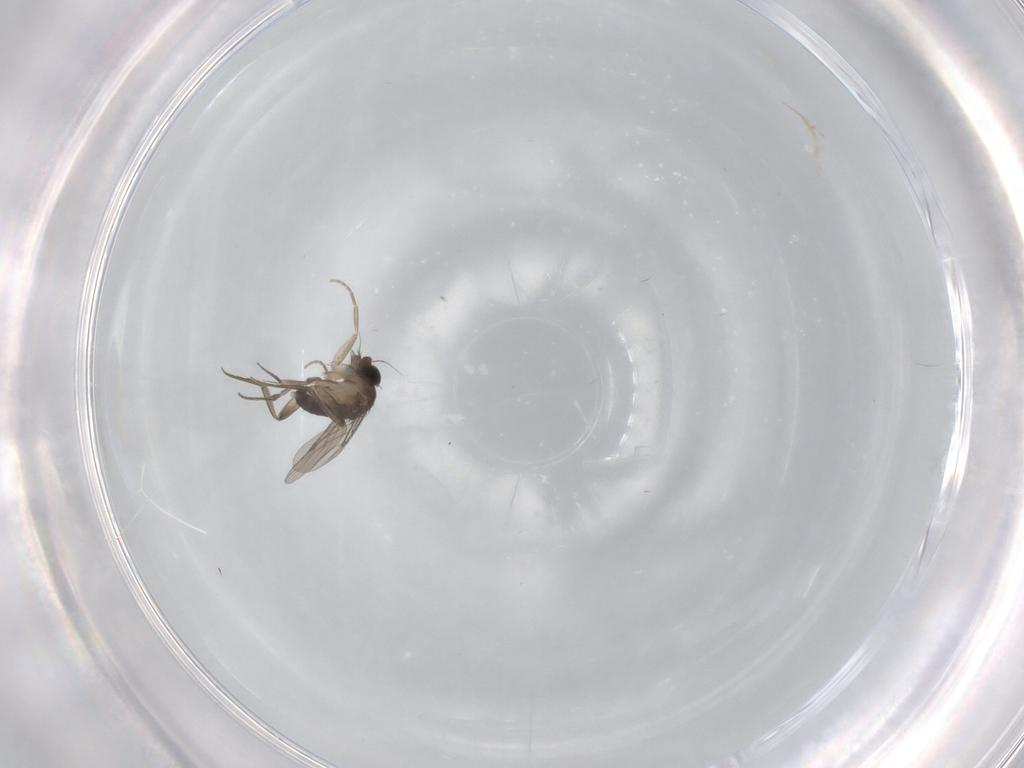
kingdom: Animalia
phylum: Arthropoda
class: Insecta
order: Diptera
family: Phoridae
